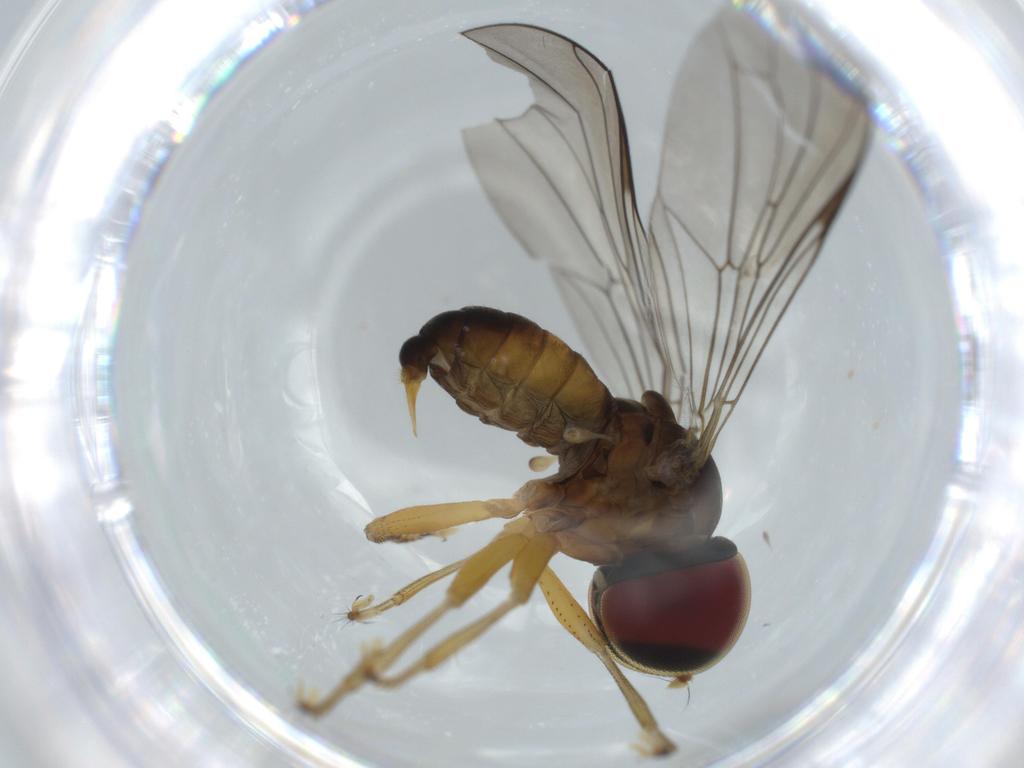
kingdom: Animalia
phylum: Arthropoda
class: Insecta
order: Diptera
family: Pipunculidae
